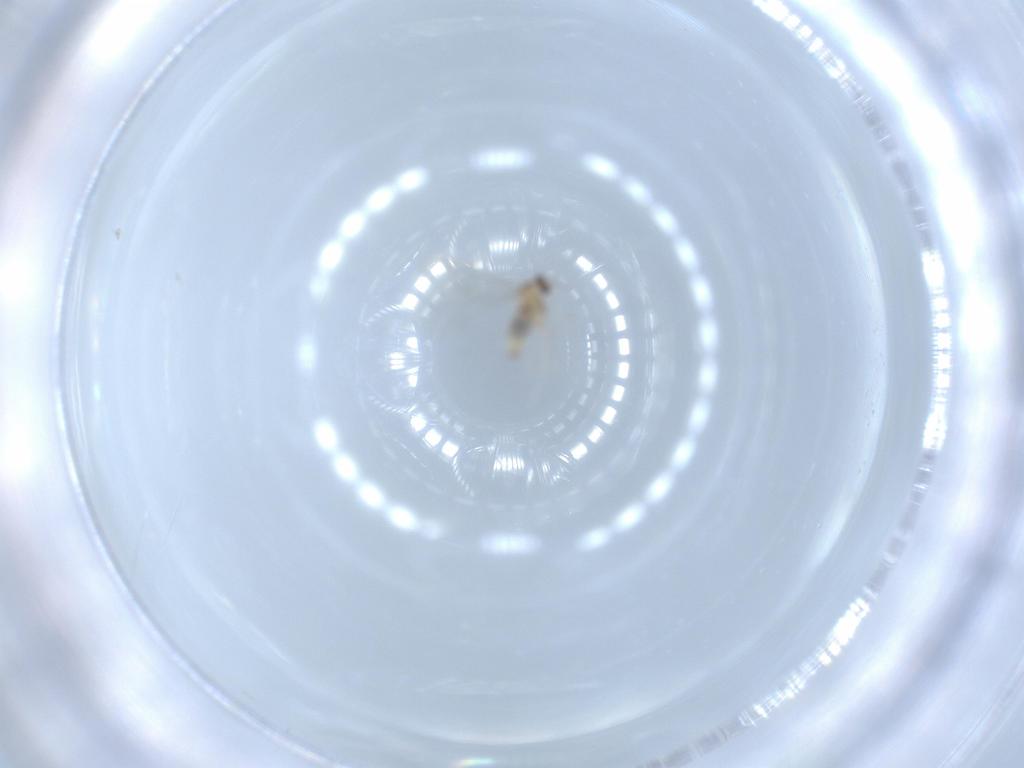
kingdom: Animalia
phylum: Arthropoda
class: Insecta
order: Diptera
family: Cecidomyiidae
